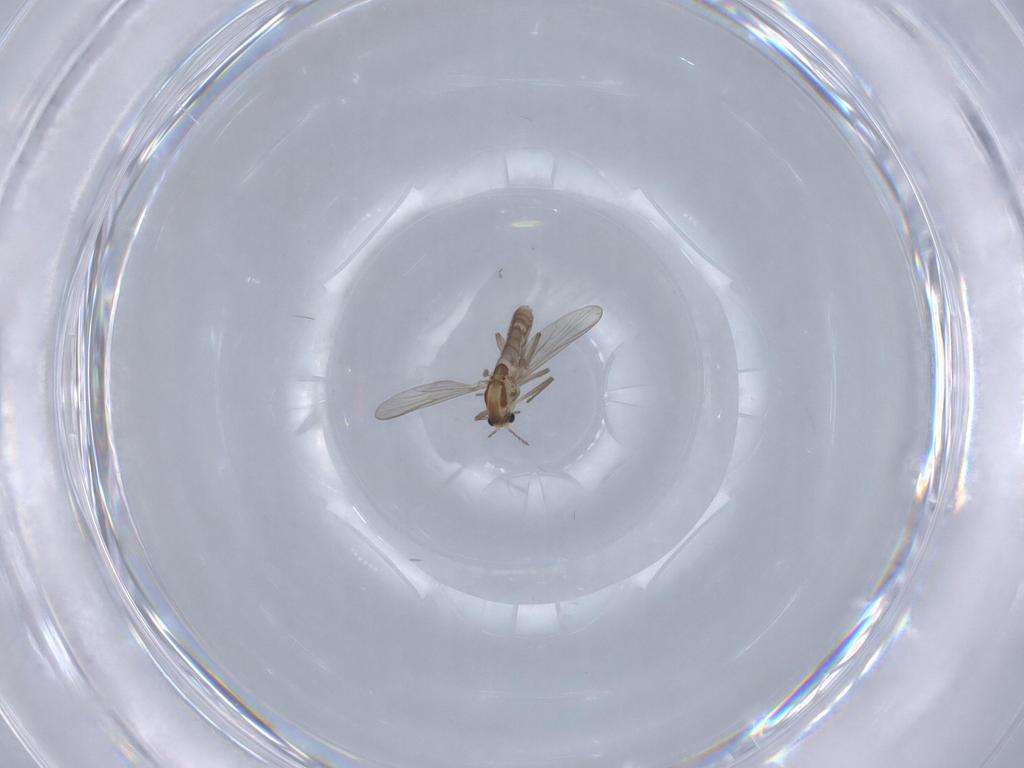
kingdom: Animalia
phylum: Arthropoda
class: Insecta
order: Diptera
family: Chironomidae
